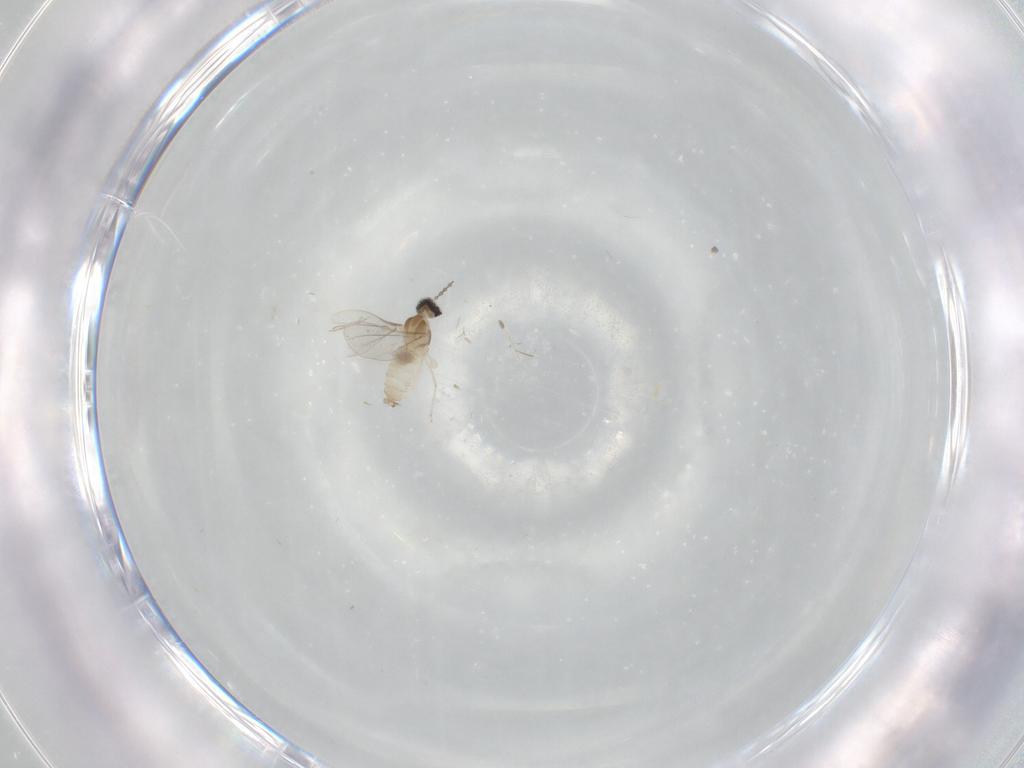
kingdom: Animalia
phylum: Arthropoda
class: Insecta
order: Diptera
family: Cecidomyiidae
